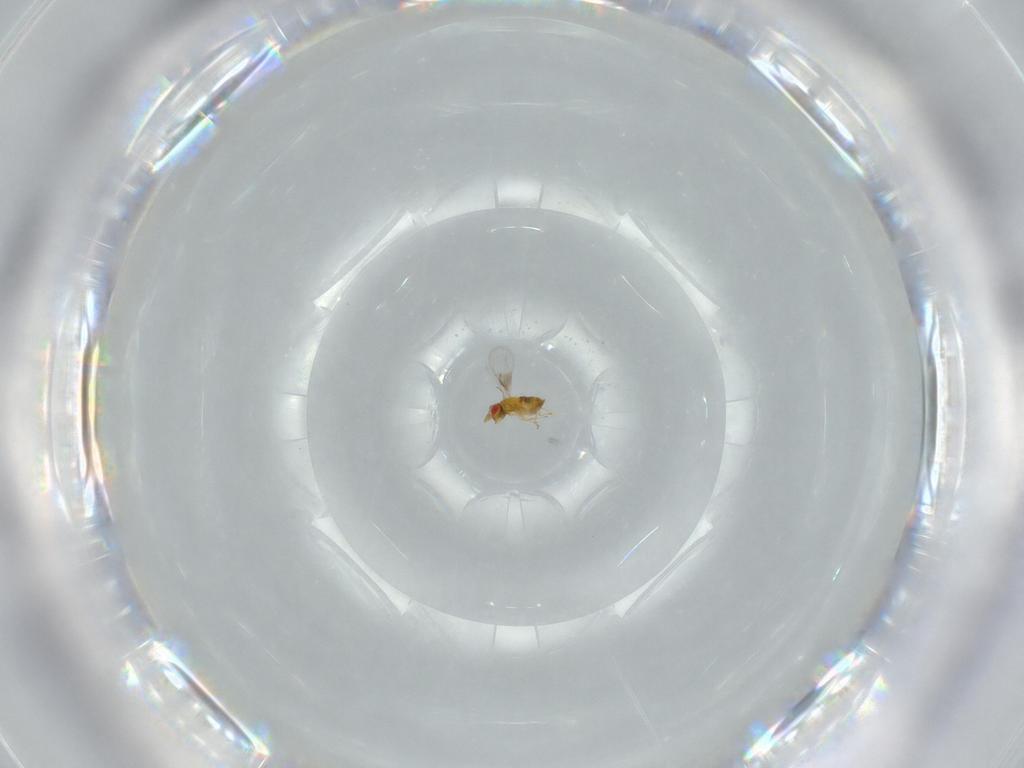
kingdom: Animalia
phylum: Arthropoda
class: Insecta
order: Hymenoptera
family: Trichogrammatidae
